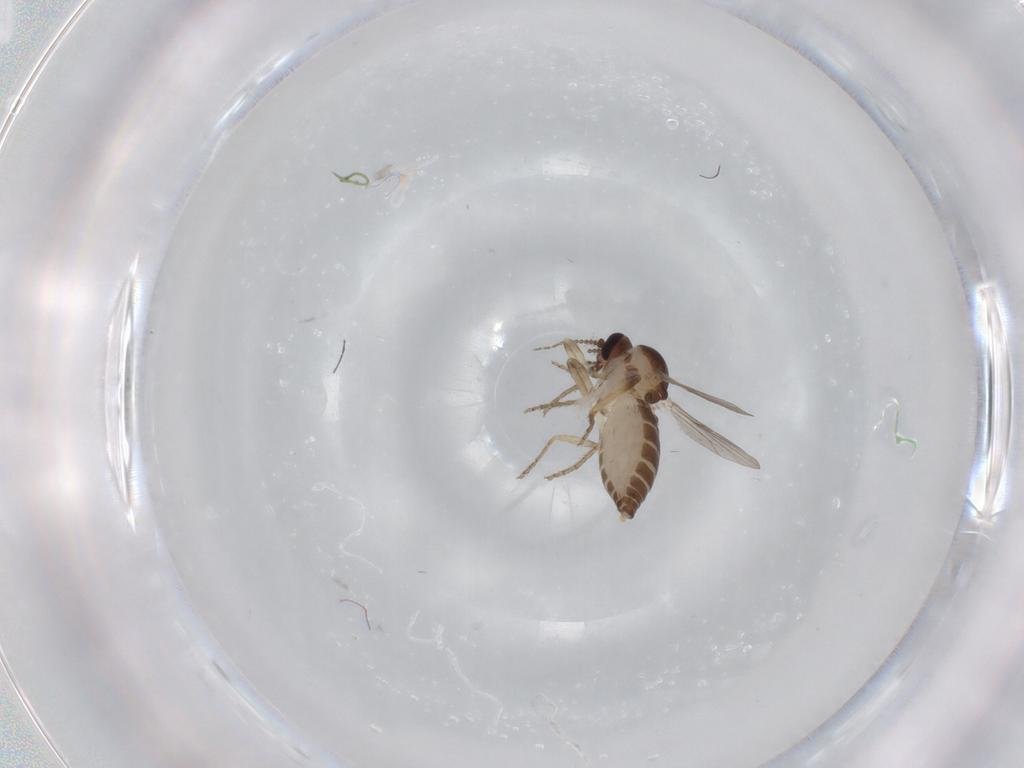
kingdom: Animalia
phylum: Arthropoda
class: Insecta
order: Diptera
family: Ceratopogonidae
